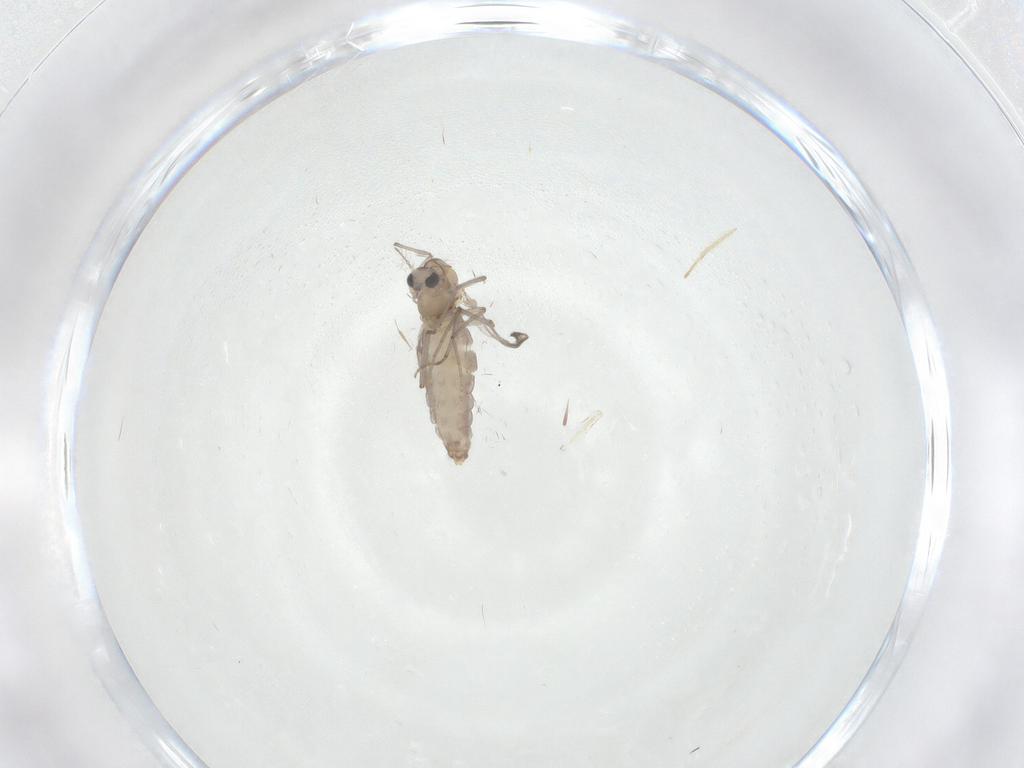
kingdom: Animalia
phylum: Arthropoda
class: Insecta
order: Diptera
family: Chironomidae
